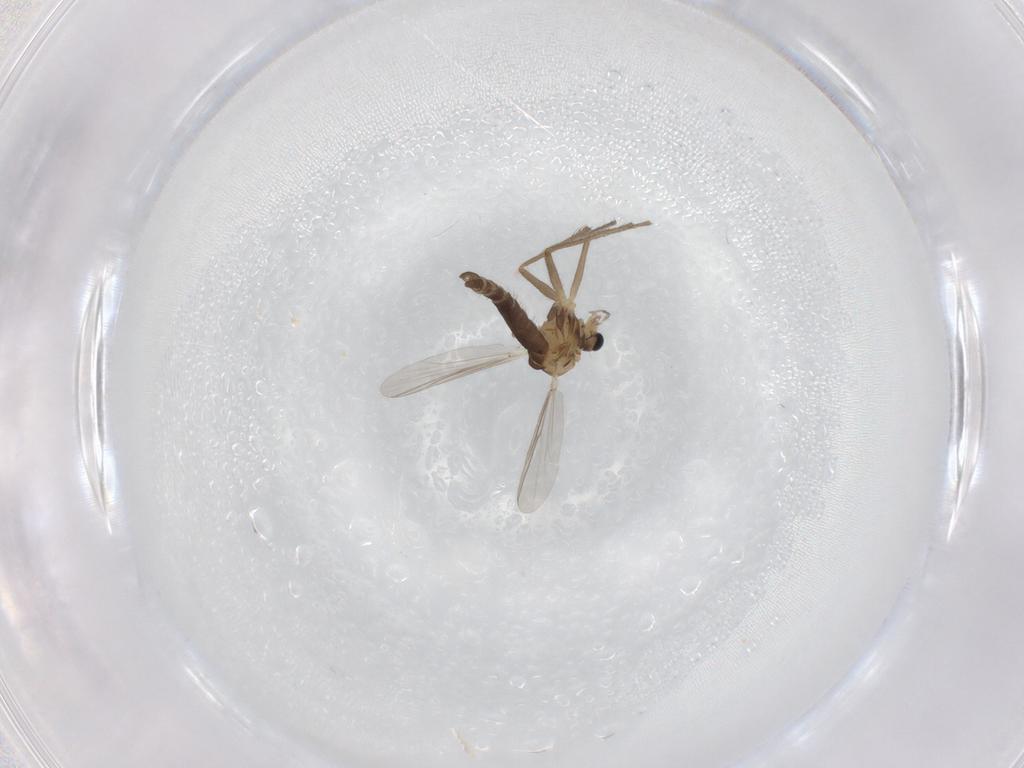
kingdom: Animalia
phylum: Arthropoda
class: Insecta
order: Diptera
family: Chironomidae
